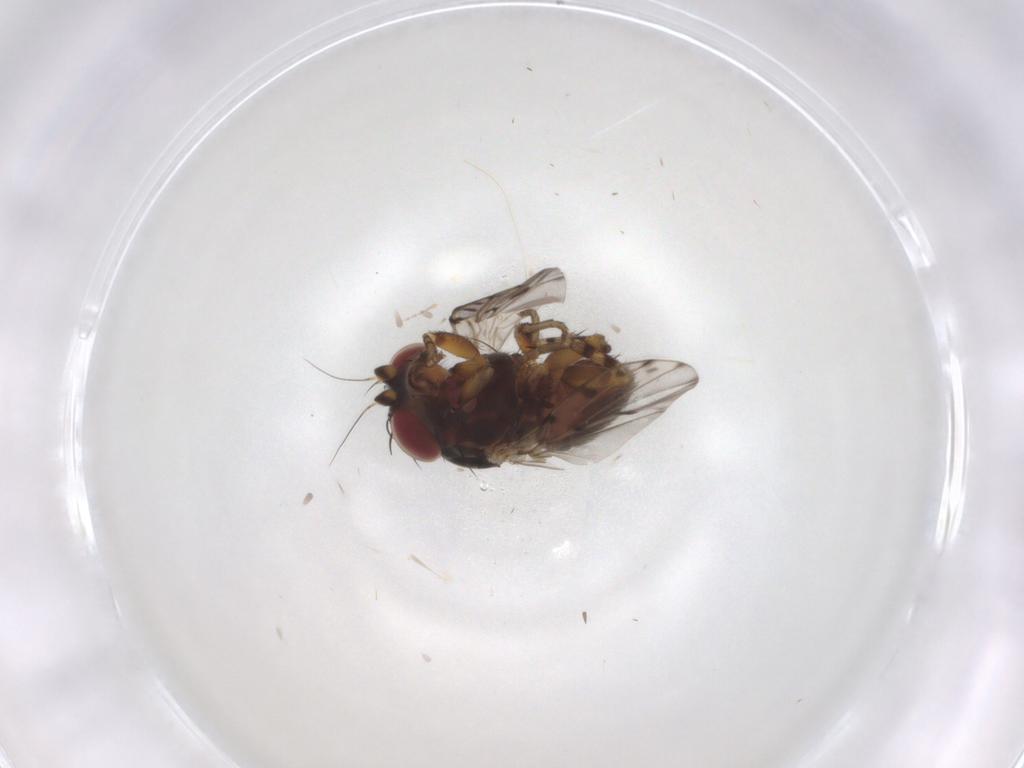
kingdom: Animalia
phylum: Arthropoda
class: Insecta
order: Diptera
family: Odiniidae
